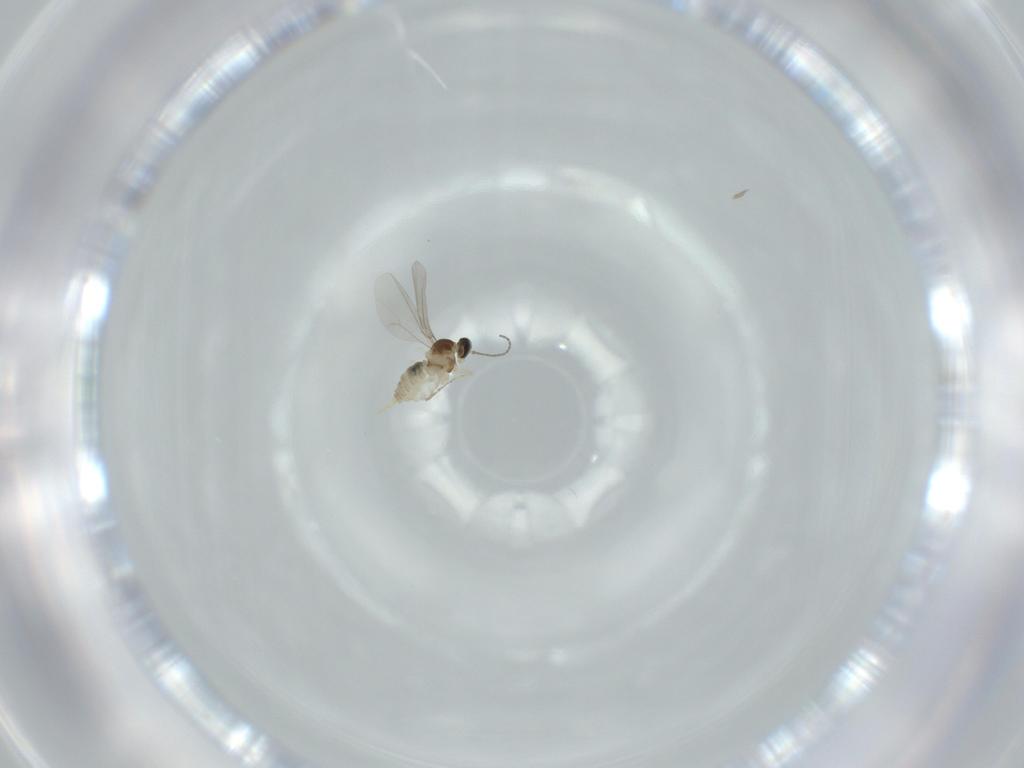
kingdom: Animalia
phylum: Arthropoda
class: Insecta
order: Diptera
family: Cecidomyiidae
